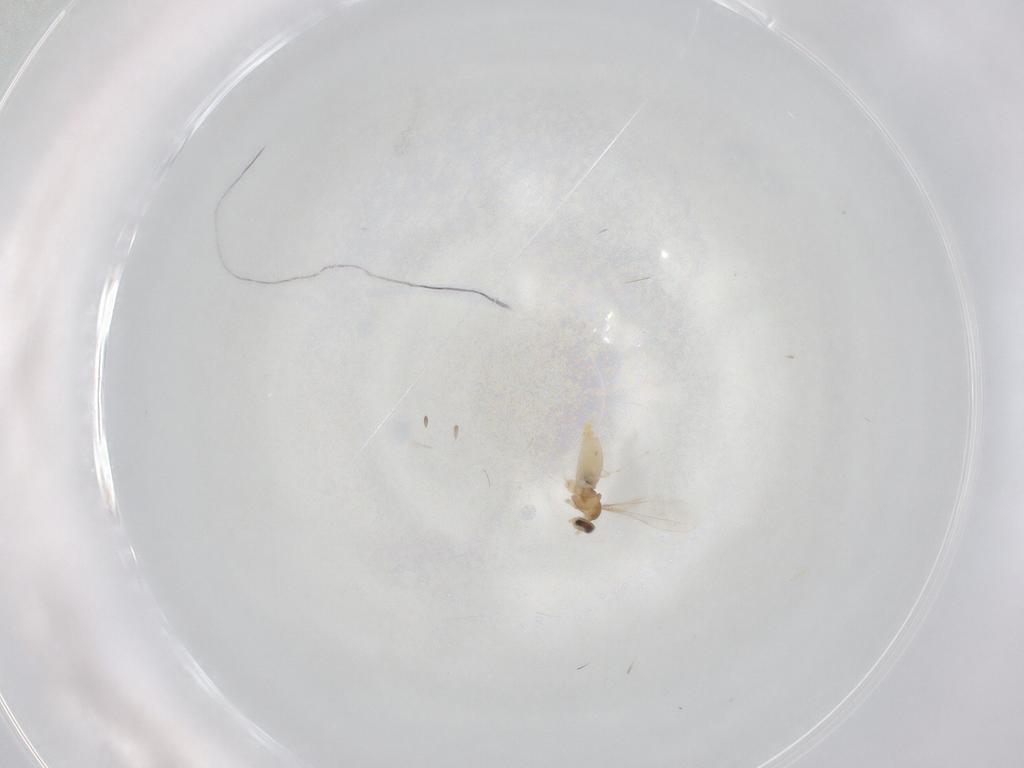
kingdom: Animalia
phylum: Arthropoda
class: Insecta
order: Diptera
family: Cecidomyiidae
